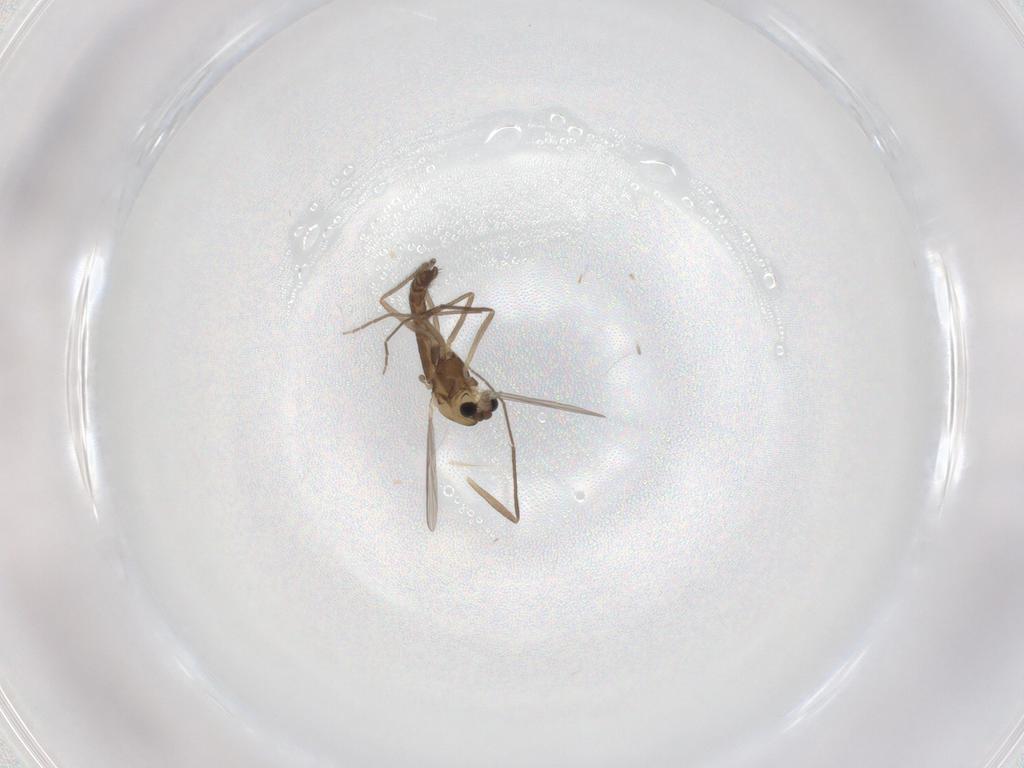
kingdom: Animalia
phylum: Arthropoda
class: Insecta
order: Diptera
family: Chironomidae
